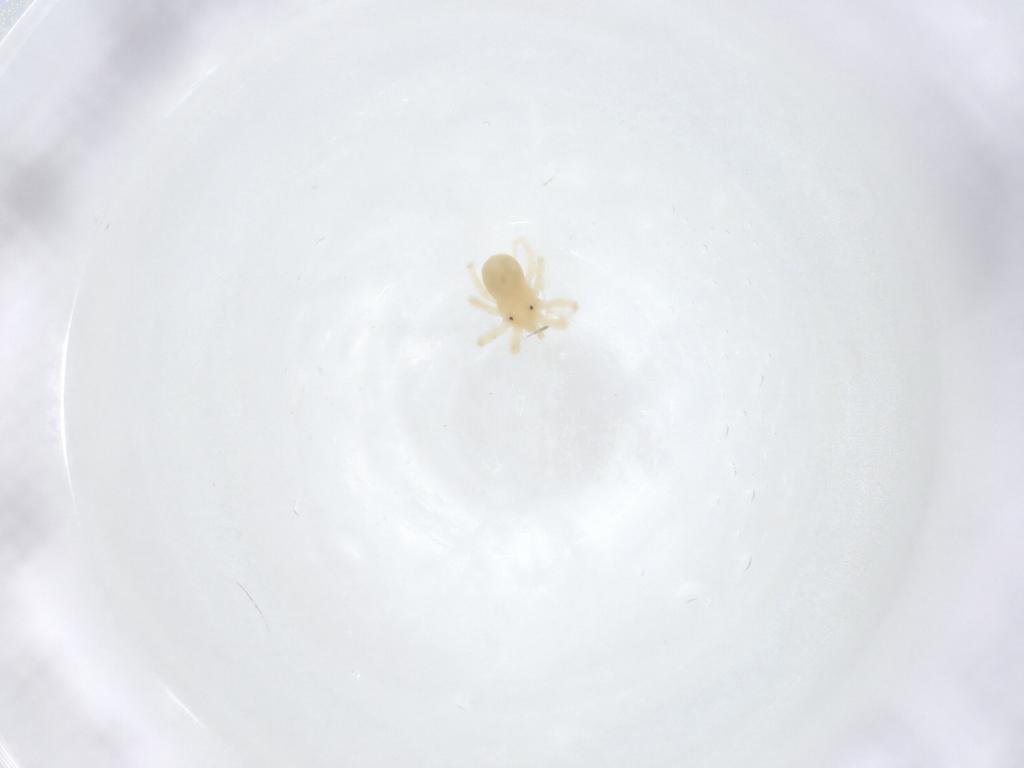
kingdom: Animalia
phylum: Arthropoda
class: Arachnida
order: Trombidiformes
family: Anystidae
